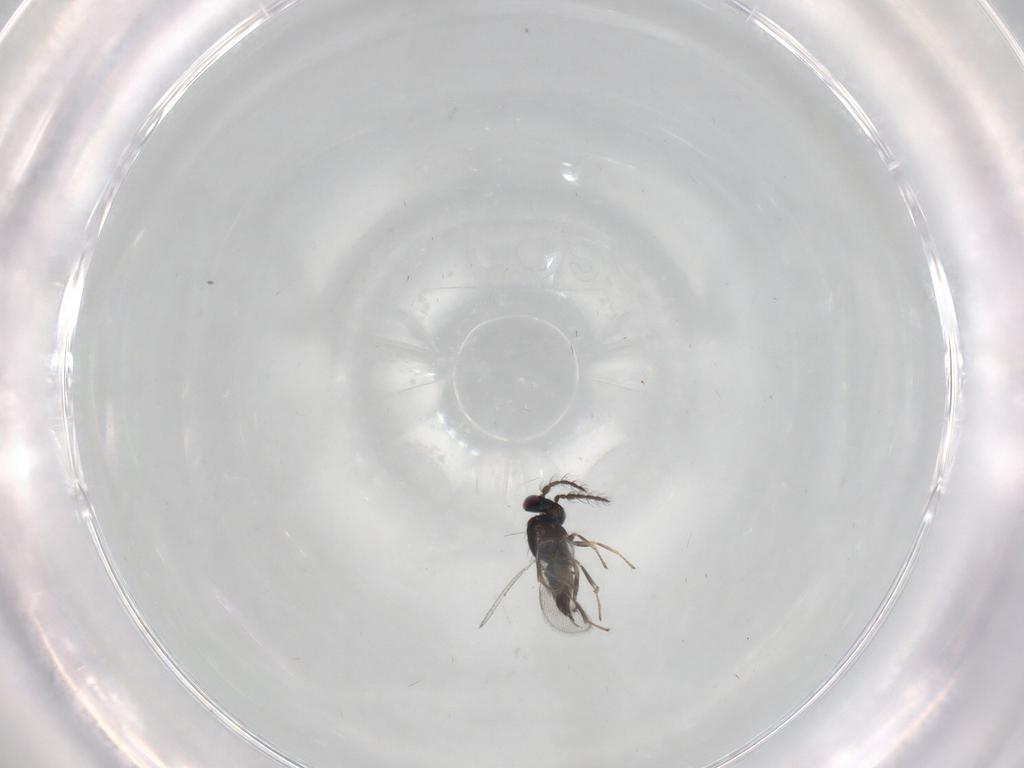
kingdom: Animalia
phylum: Arthropoda
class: Insecta
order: Hymenoptera
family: Eulophidae
